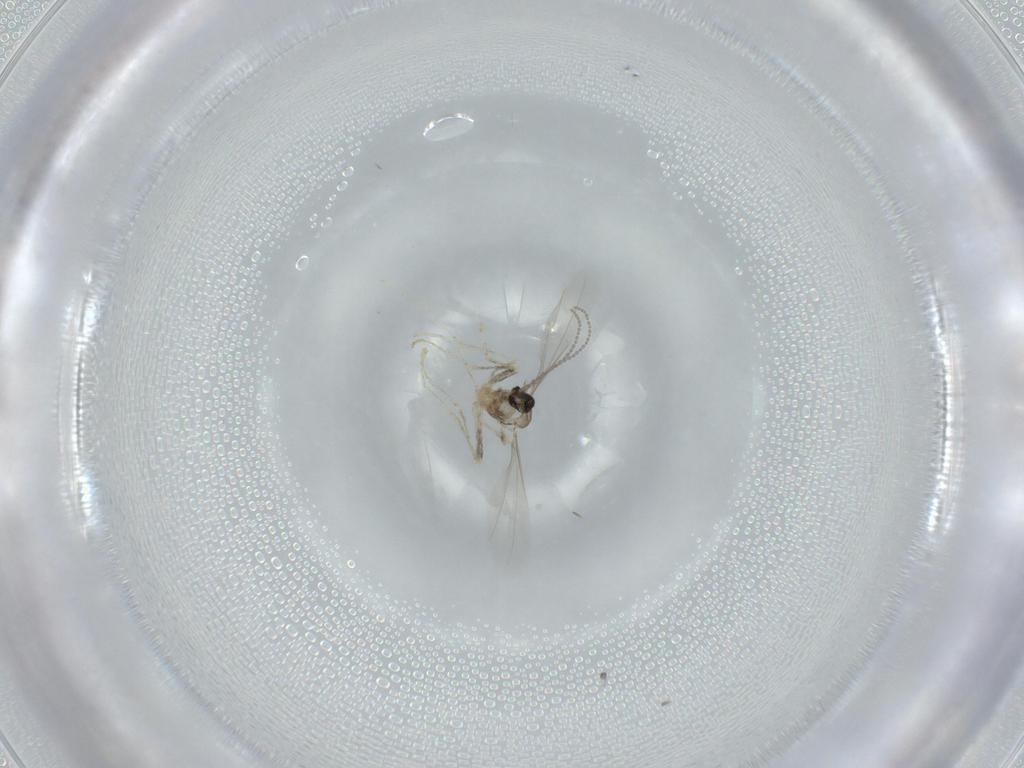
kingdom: Animalia
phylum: Arthropoda
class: Insecta
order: Diptera
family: Cecidomyiidae
